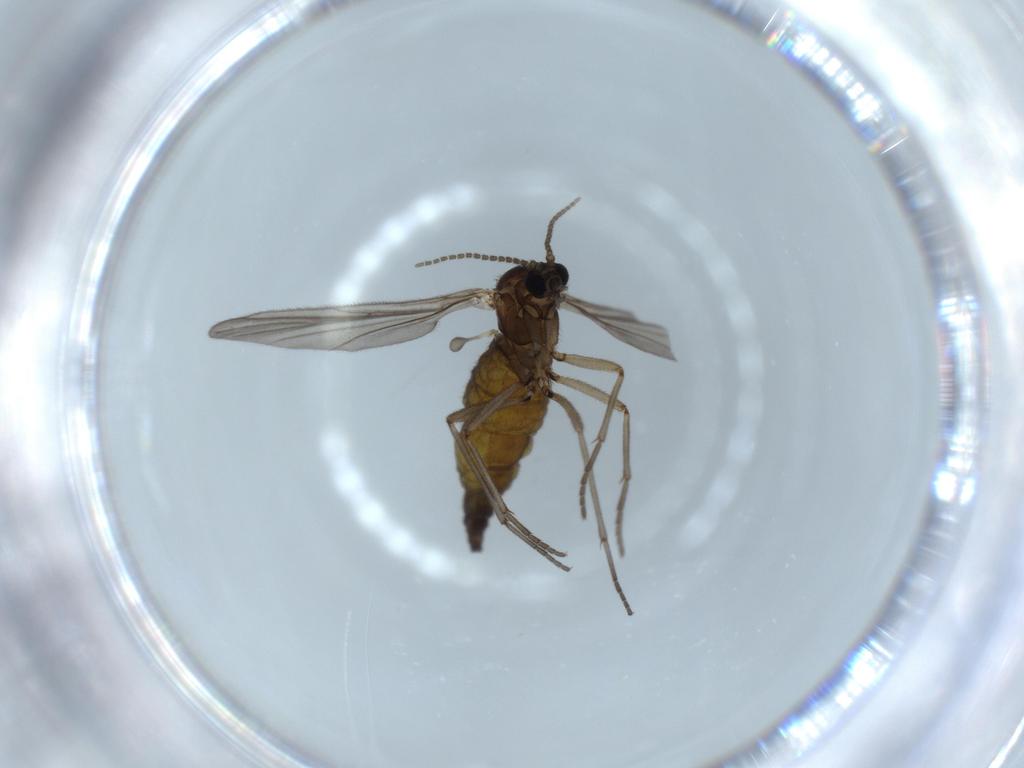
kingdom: Animalia
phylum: Arthropoda
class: Insecta
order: Diptera
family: Sciaridae
